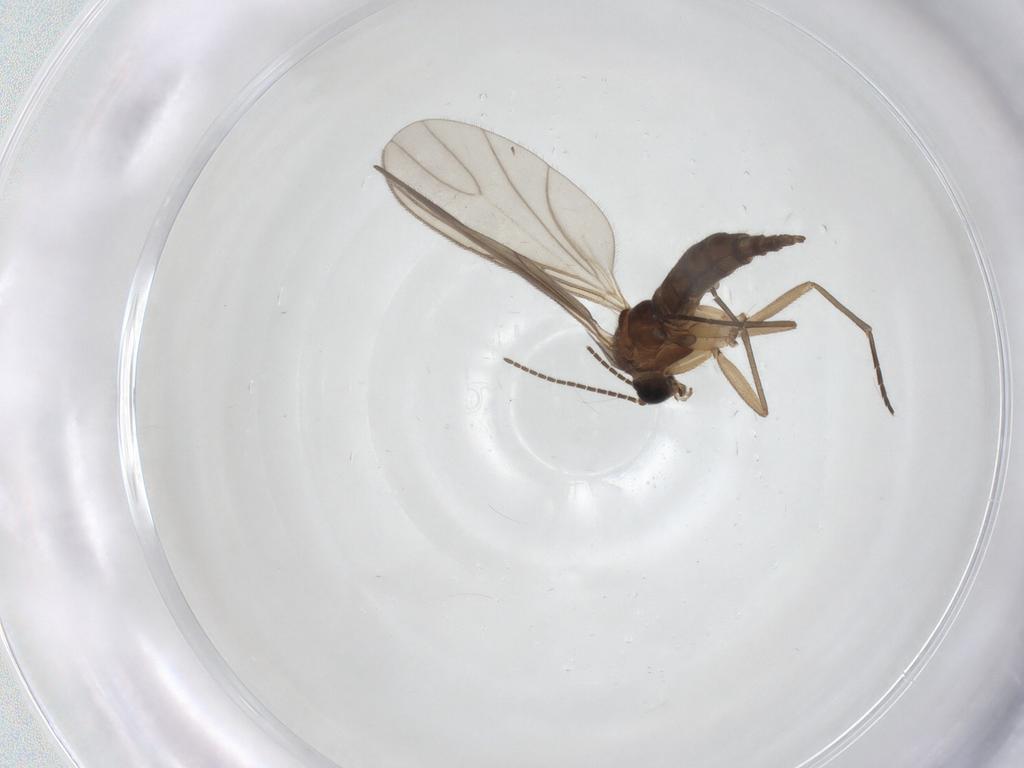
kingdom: Animalia
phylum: Arthropoda
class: Insecta
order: Diptera
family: Sciaridae
